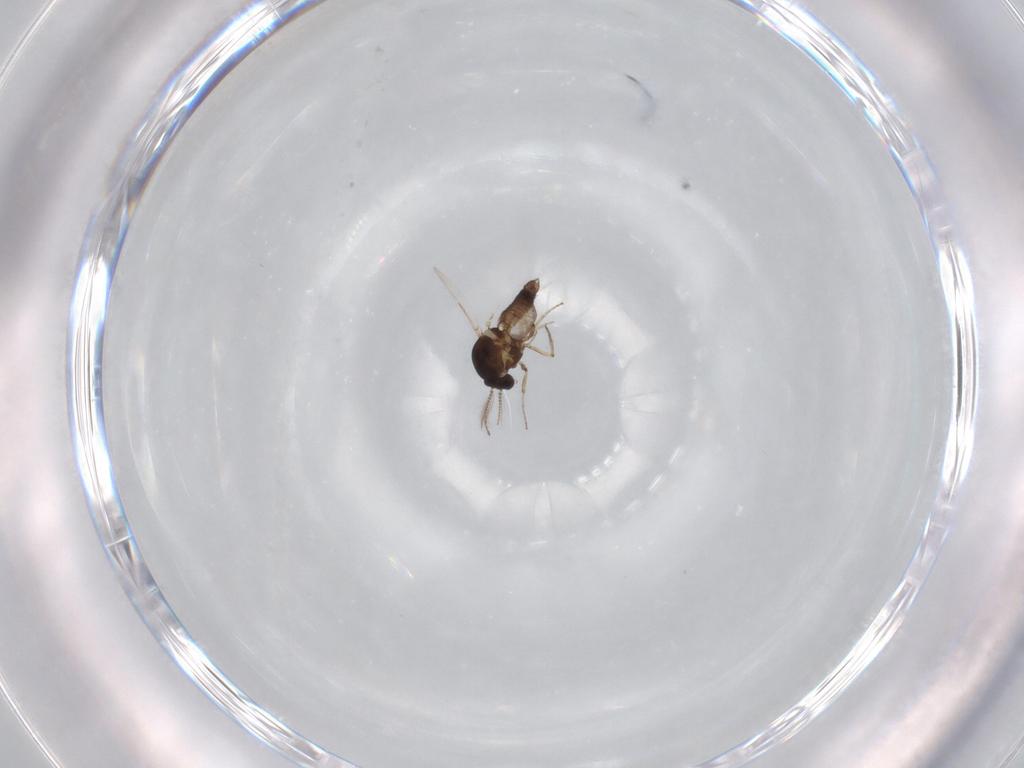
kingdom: Animalia
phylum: Arthropoda
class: Insecta
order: Diptera
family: Ceratopogonidae
